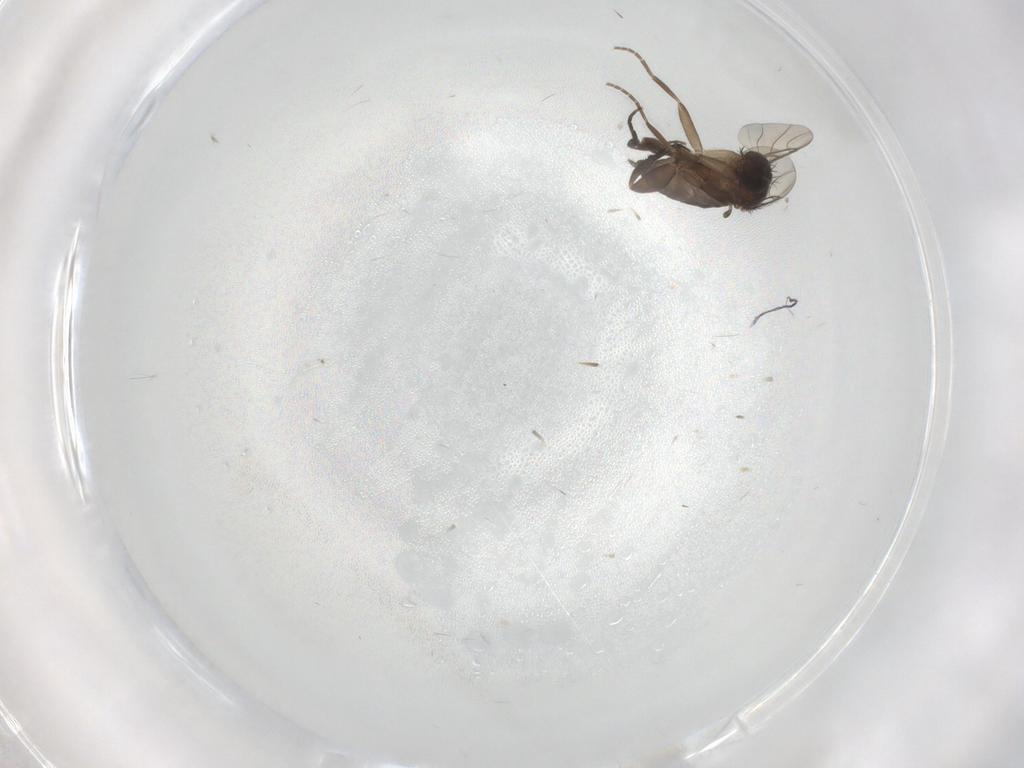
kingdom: Animalia
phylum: Arthropoda
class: Insecta
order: Diptera
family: Phoridae
